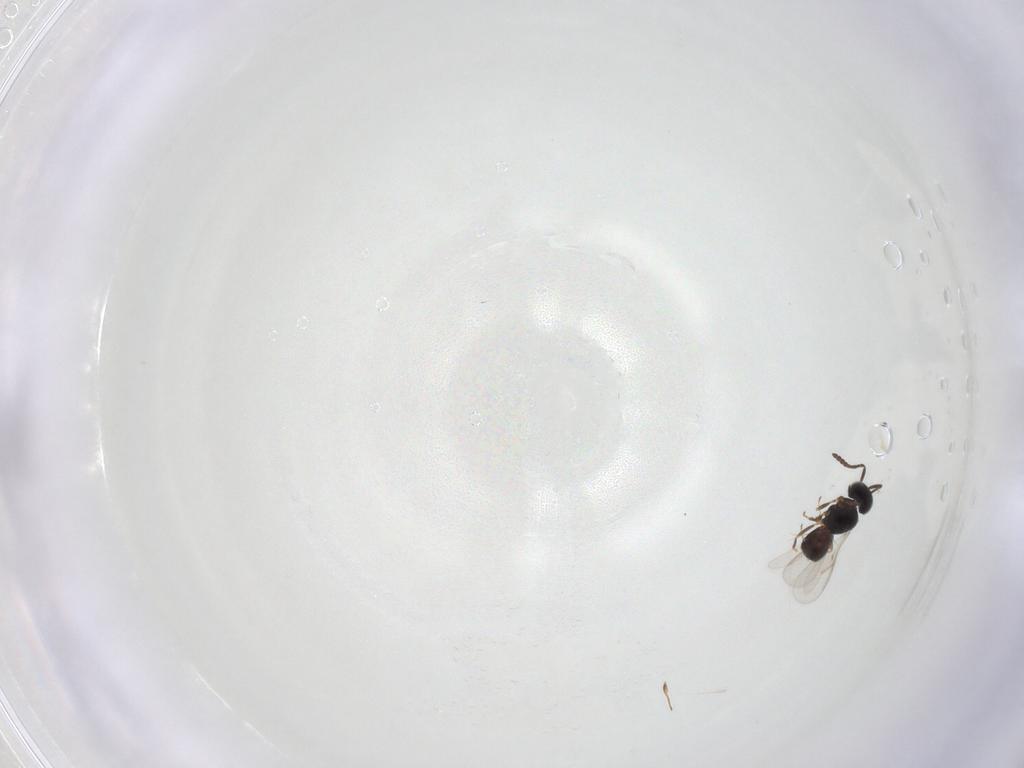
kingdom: Animalia
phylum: Arthropoda
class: Insecta
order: Hymenoptera
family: Scelionidae
